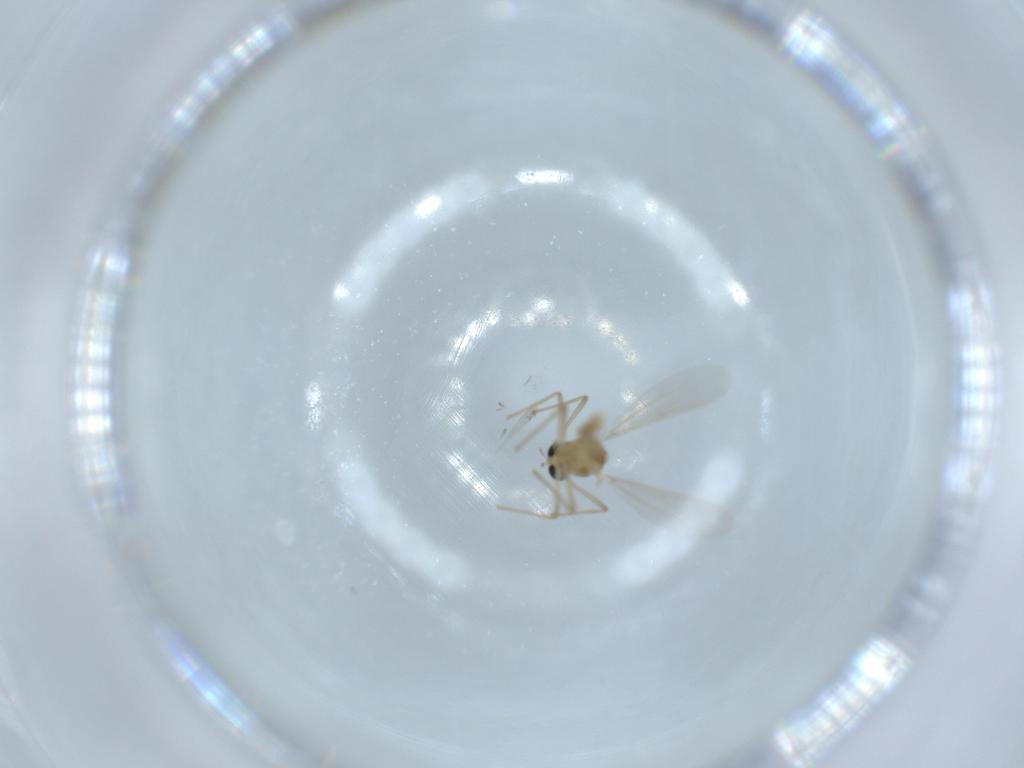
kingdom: Animalia
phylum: Arthropoda
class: Insecta
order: Diptera
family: Chironomidae
